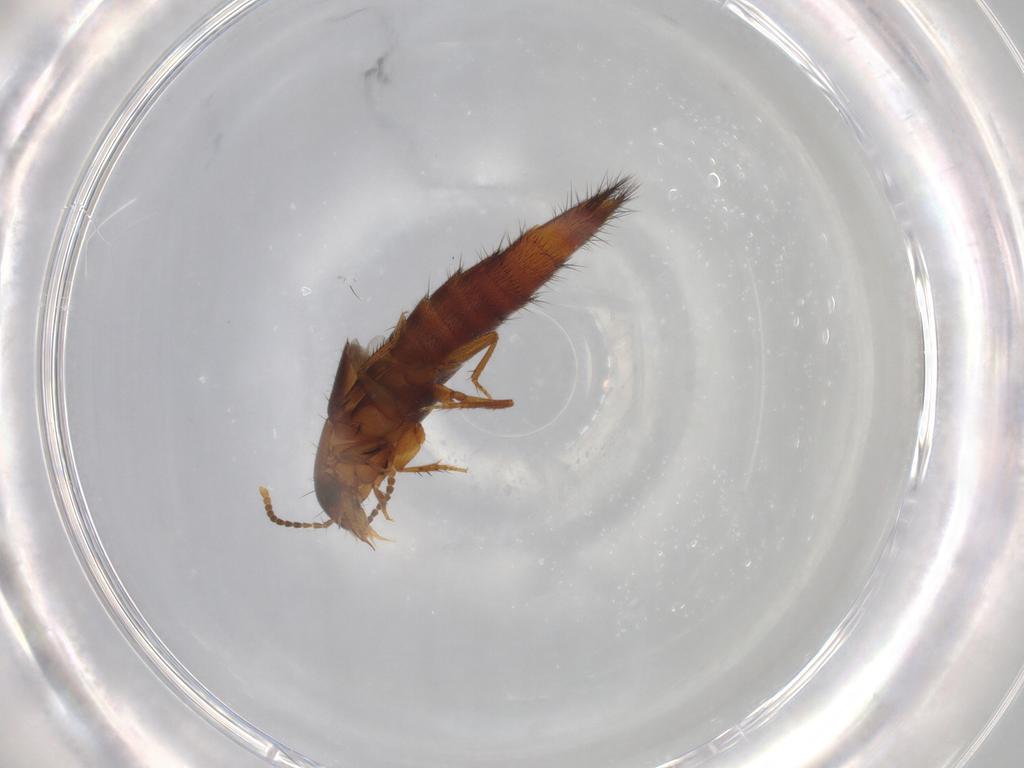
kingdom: Animalia
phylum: Arthropoda
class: Insecta
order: Coleoptera
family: Staphylinidae
